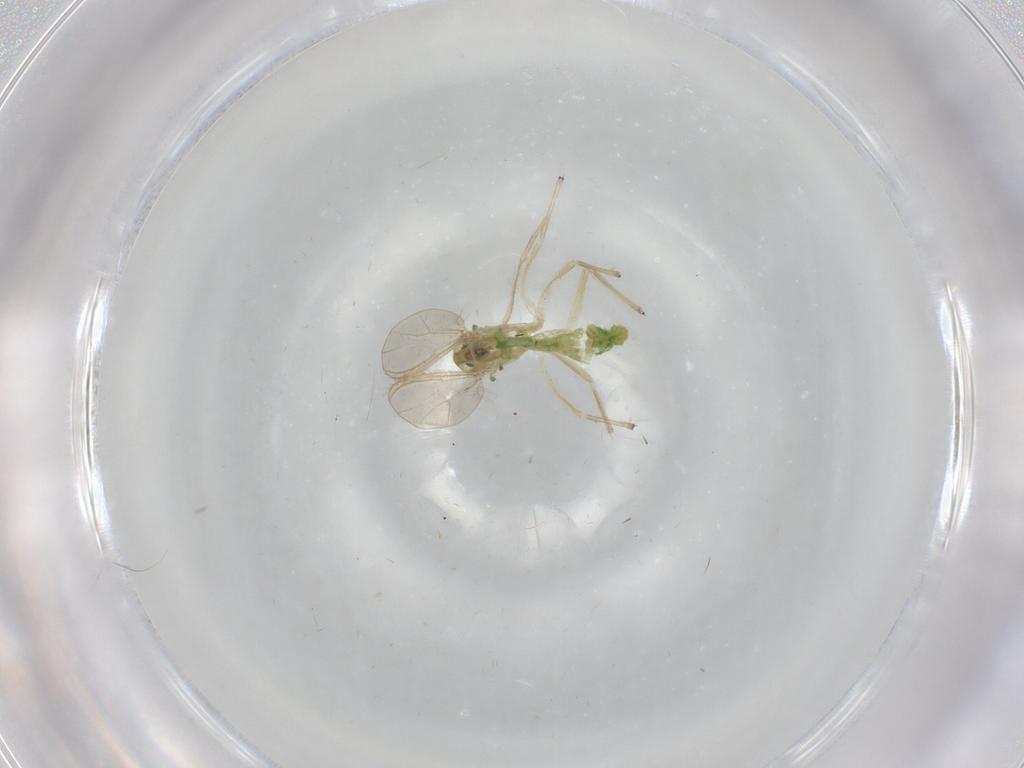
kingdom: Animalia
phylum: Arthropoda
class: Insecta
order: Diptera
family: Chironomidae
